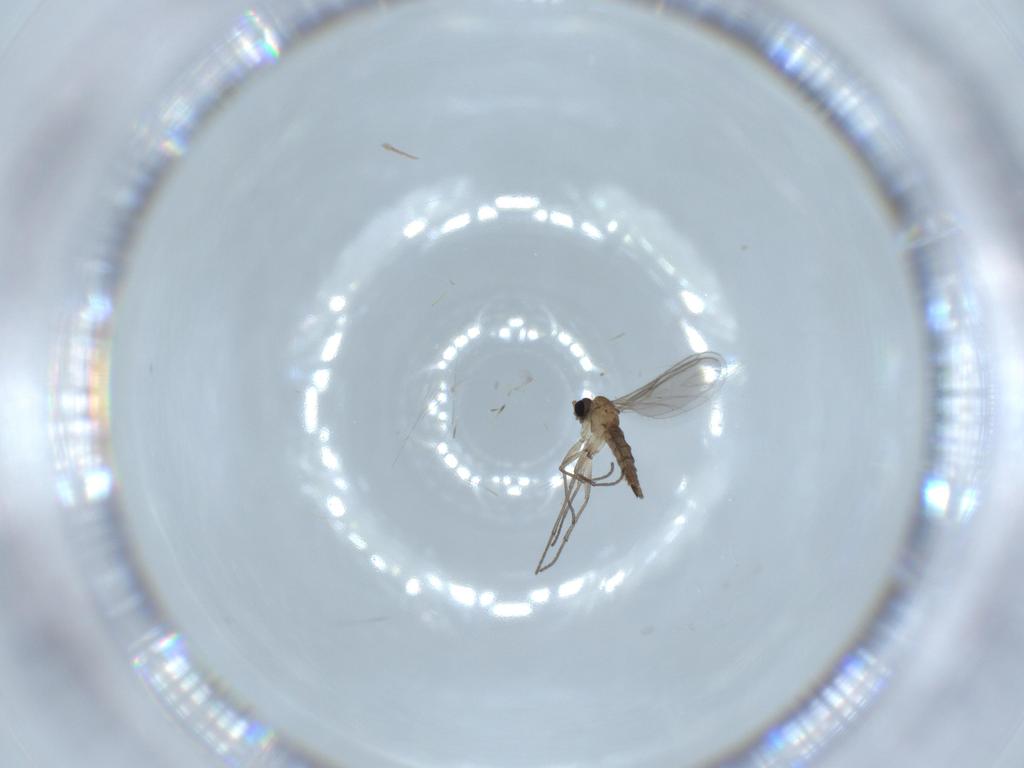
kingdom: Animalia
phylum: Arthropoda
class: Insecta
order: Diptera
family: Sciaridae
